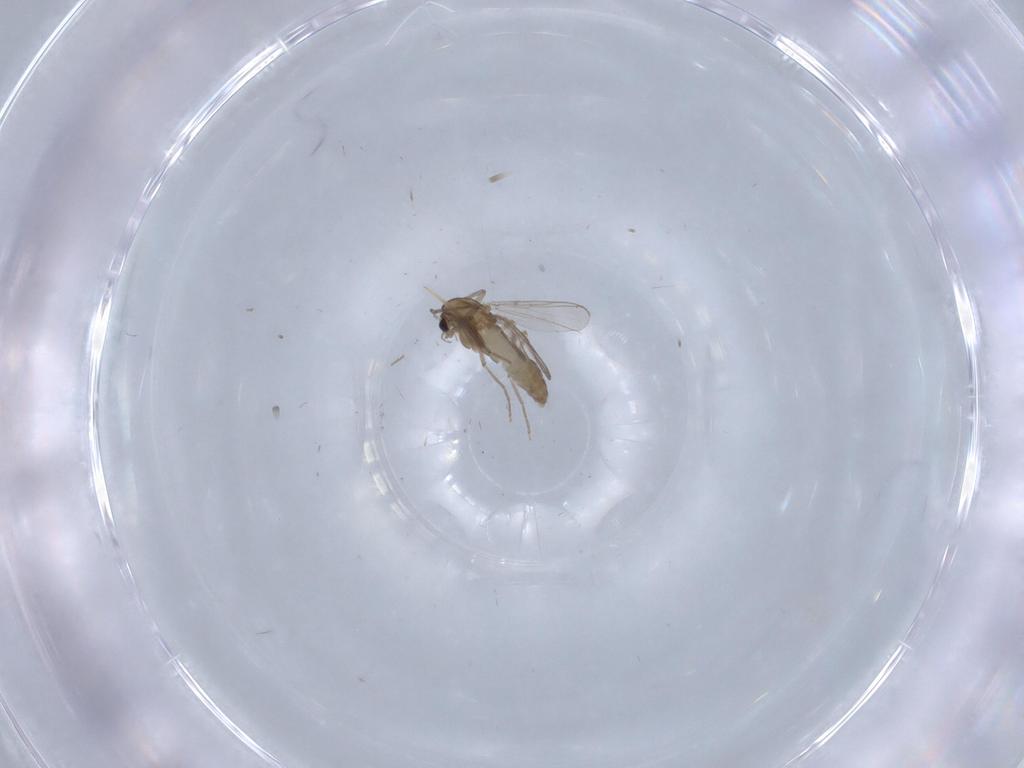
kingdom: Animalia
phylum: Arthropoda
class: Insecta
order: Diptera
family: Chironomidae
